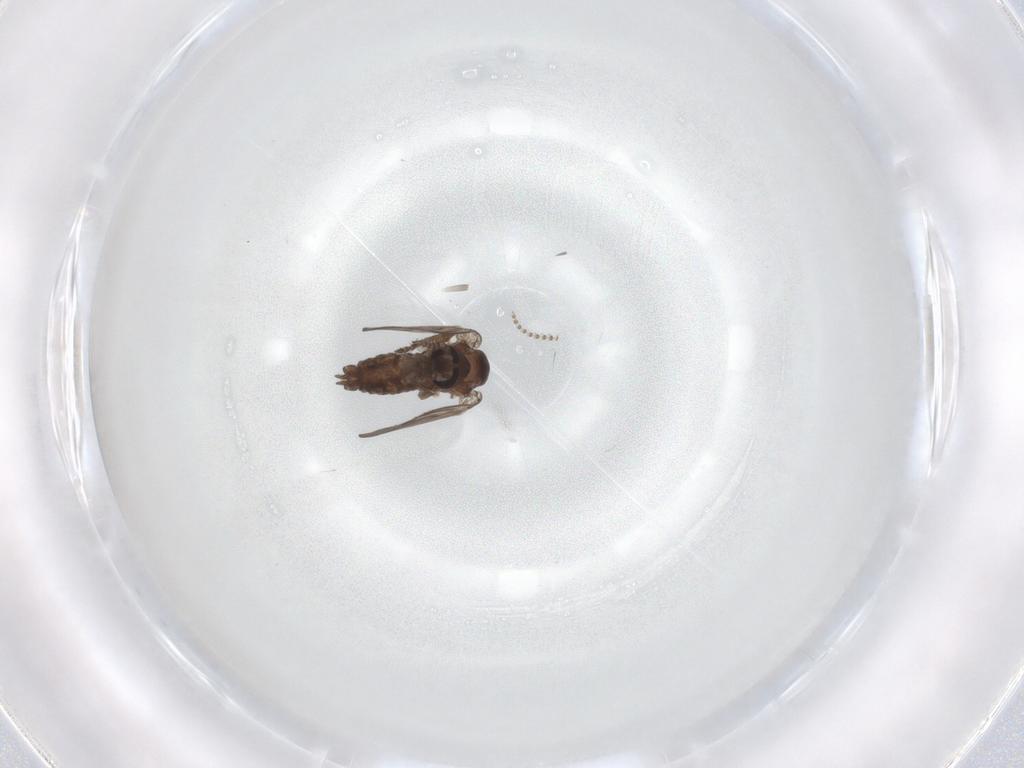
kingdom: Animalia
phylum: Arthropoda
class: Insecta
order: Diptera
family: Psychodidae
